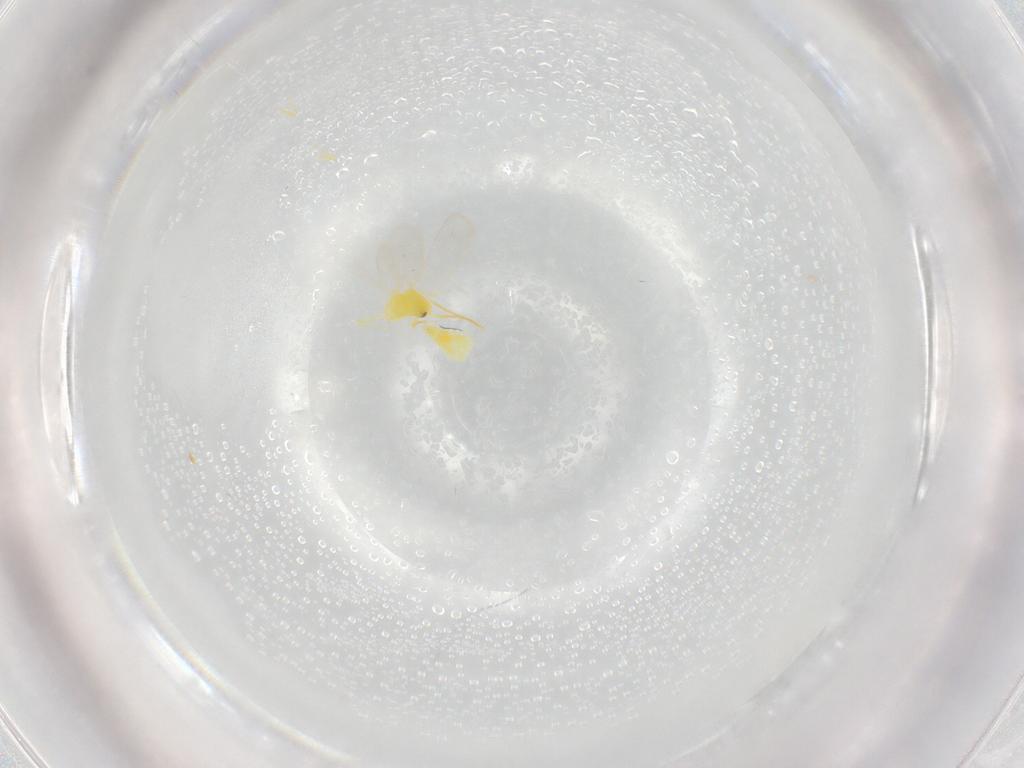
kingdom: Animalia
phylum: Arthropoda
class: Insecta
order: Hemiptera
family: Aleyrodidae
